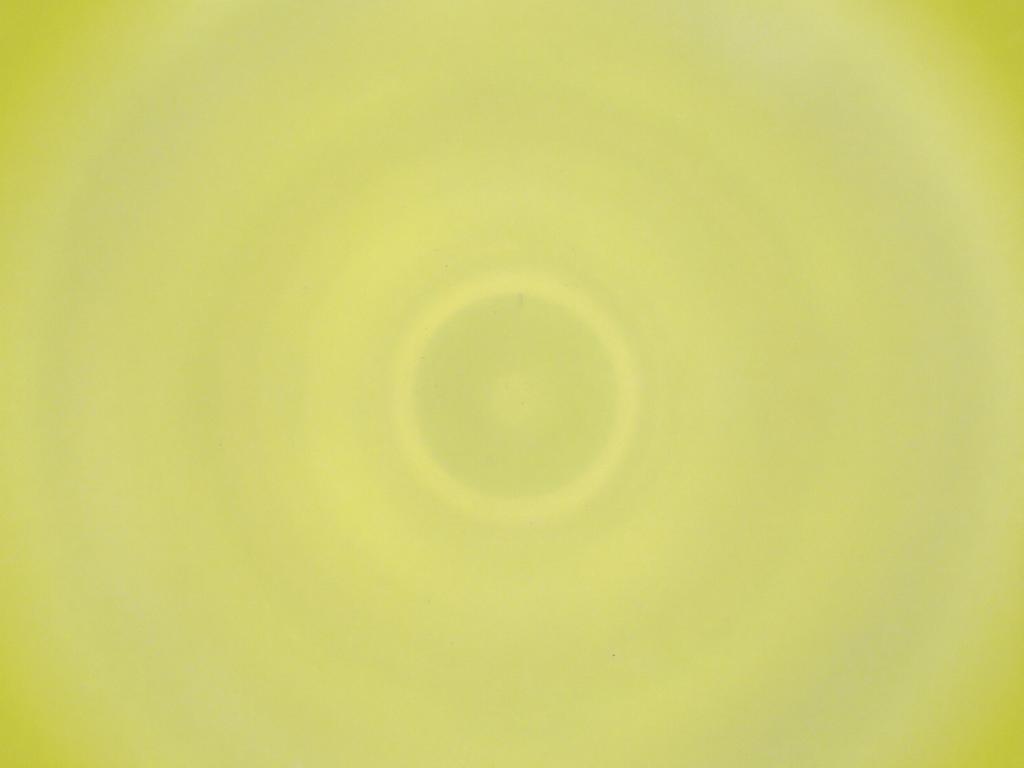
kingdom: Animalia
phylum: Arthropoda
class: Insecta
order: Diptera
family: Cecidomyiidae
